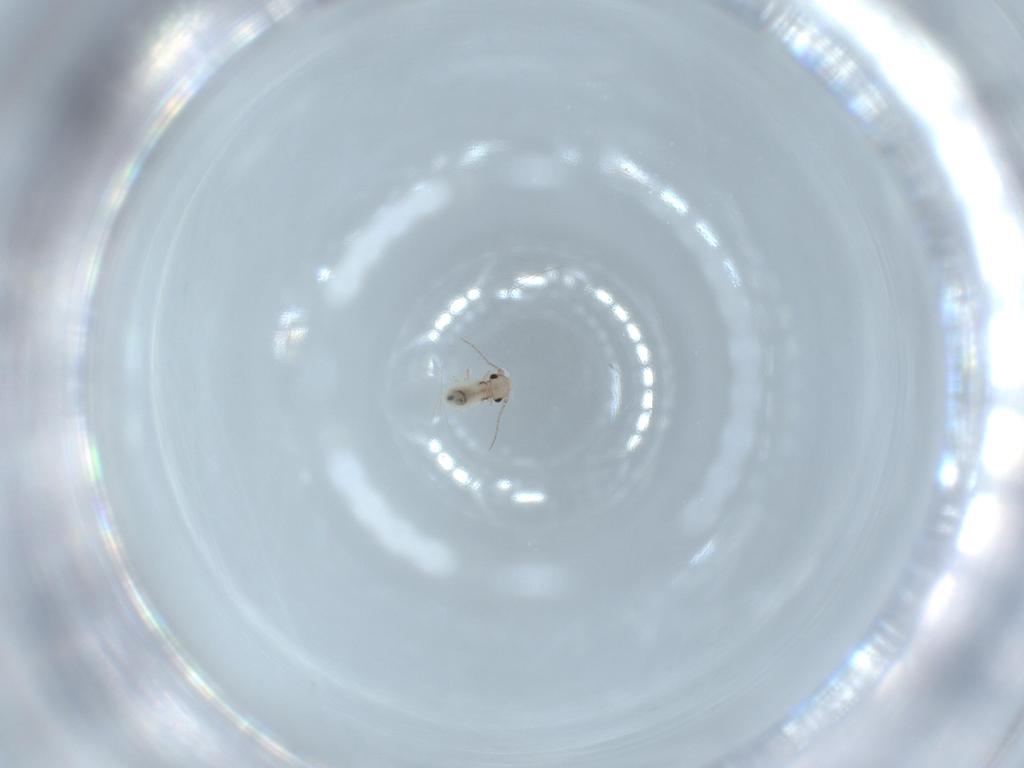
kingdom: Animalia
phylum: Arthropoda
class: Insecta
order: Psocodea
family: Lepidopsocidae
